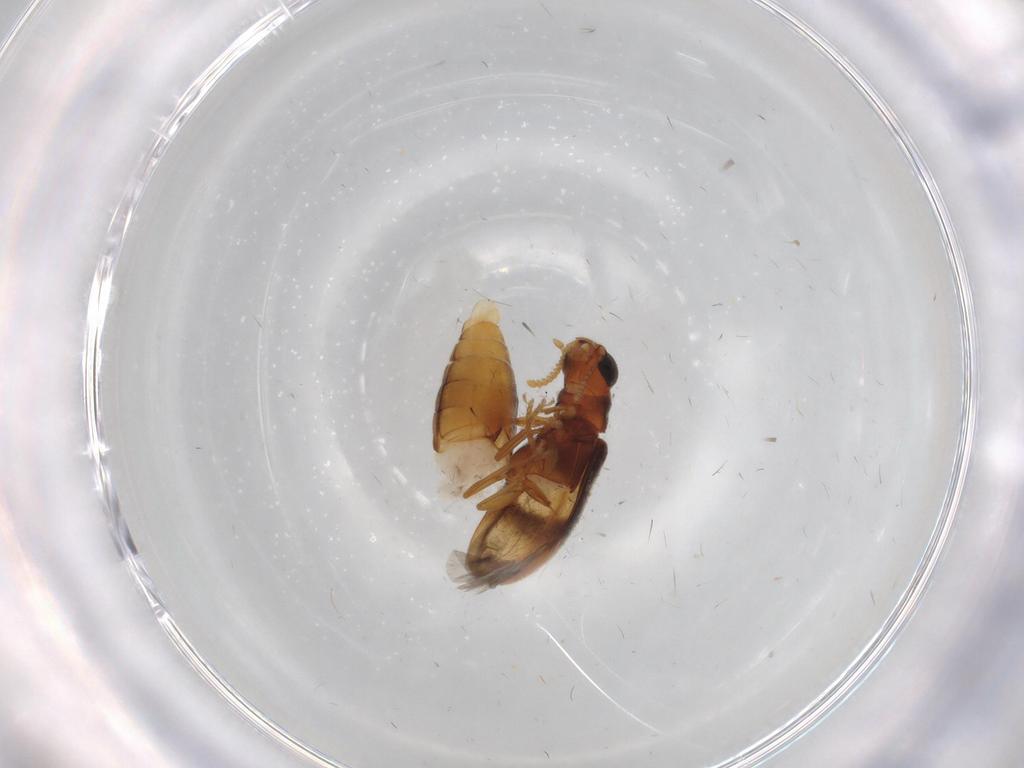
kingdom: Animalia
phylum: Arthropoda
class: Insecta
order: Coleoptera
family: Mycteridae
